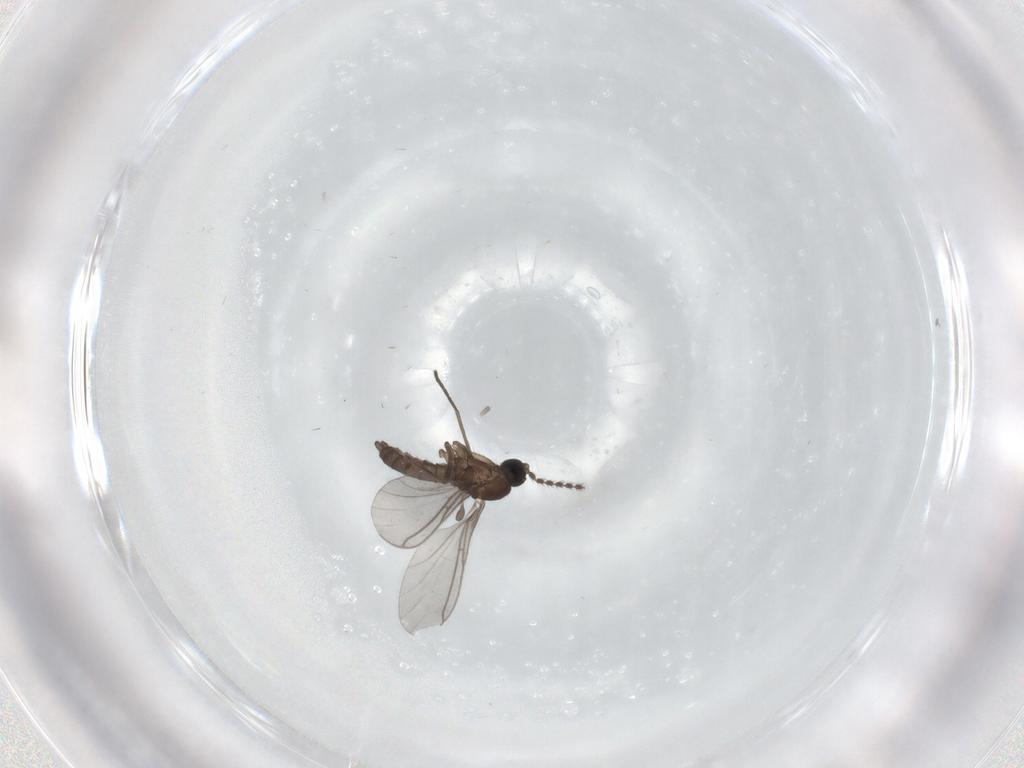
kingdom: Animalia
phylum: Arthropoda
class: Insecta
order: Diptera
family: Sciaridae
